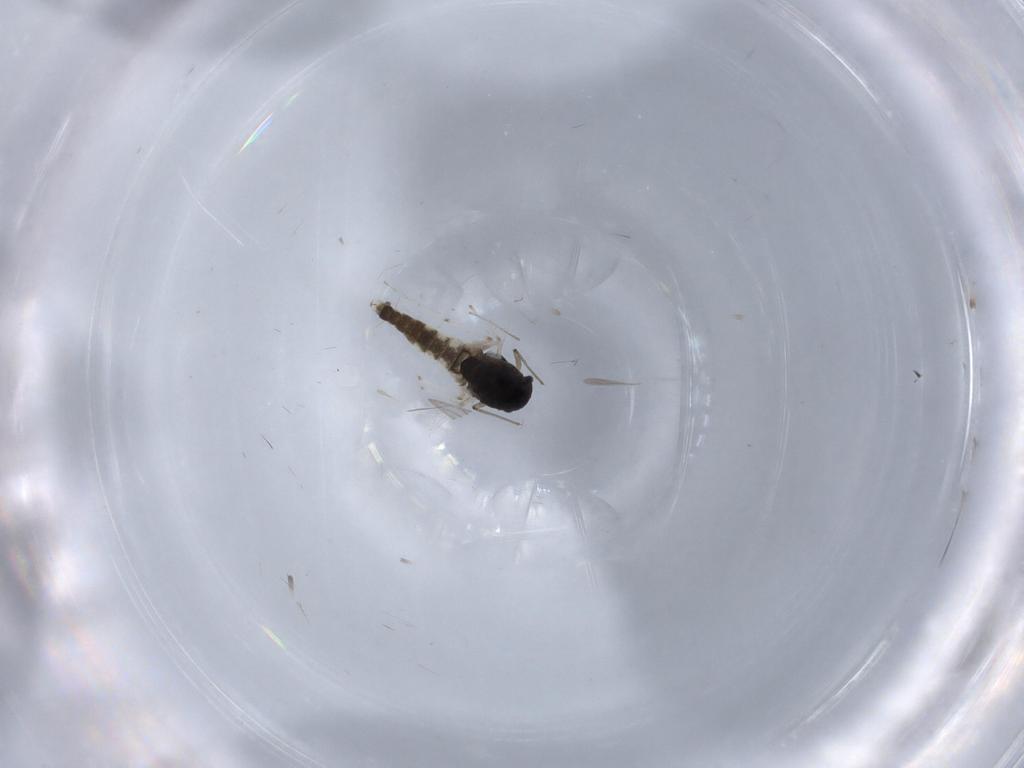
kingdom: Animalia
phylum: Arthropoda
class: Insecta
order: Diptera
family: Chironomidae
